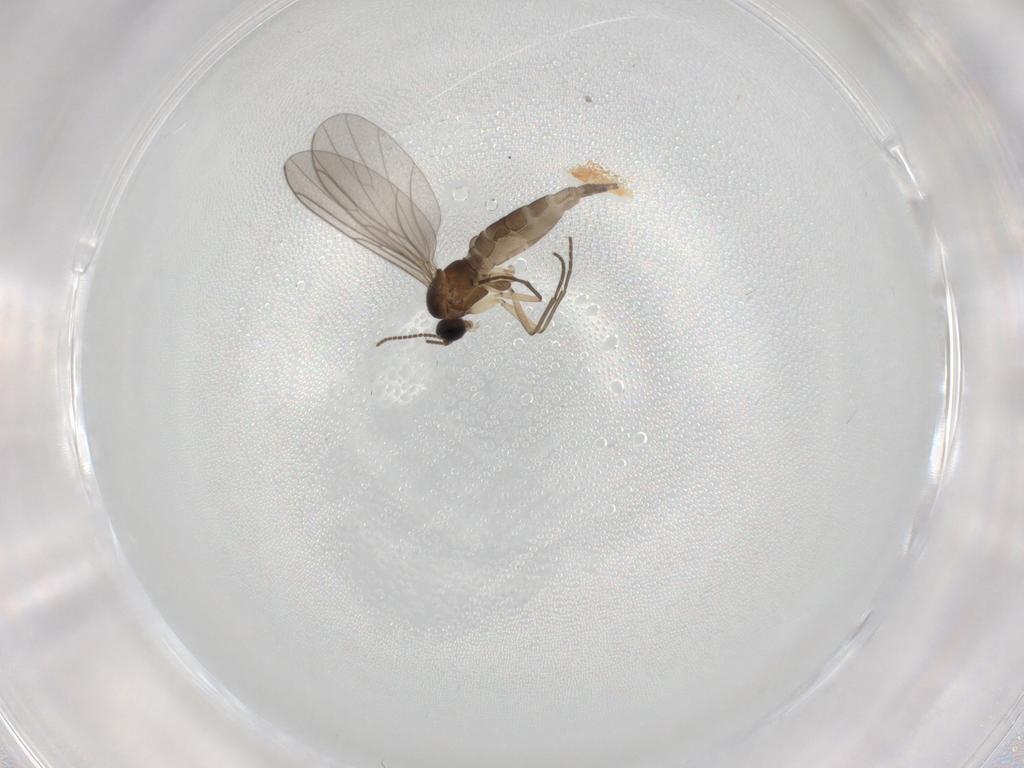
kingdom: Animalia
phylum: Arthropoda
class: Insecta
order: Diptera
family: Sciaridae
